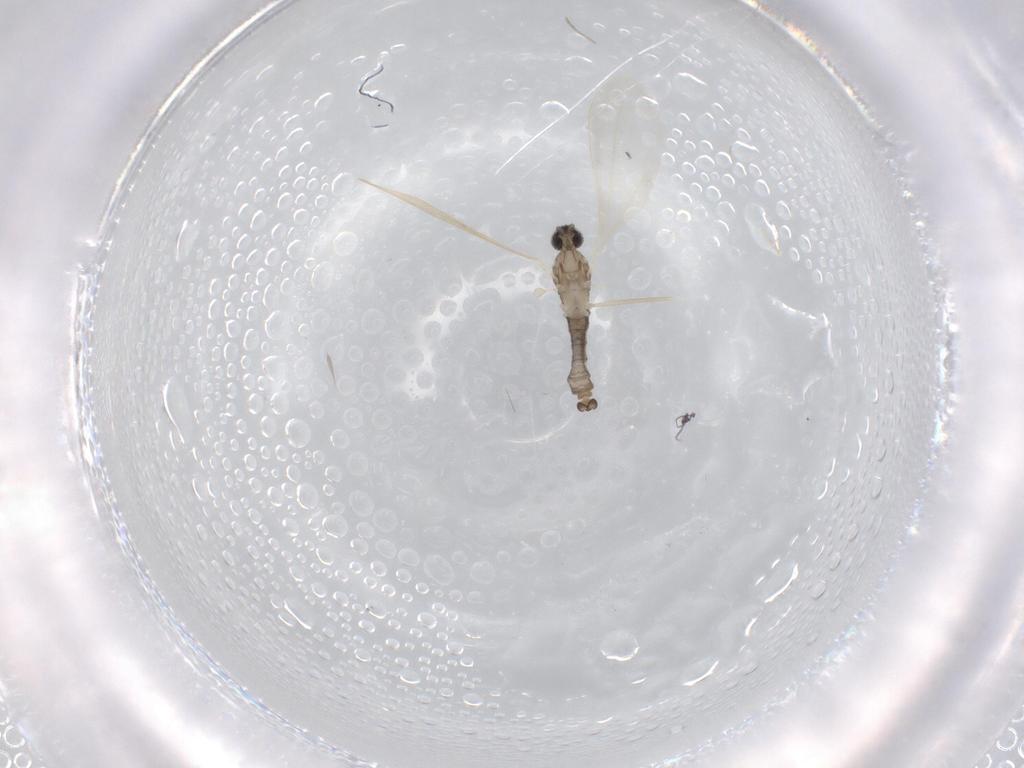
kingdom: Animalia
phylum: Arthropoda
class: Insecta
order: Diptera
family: Cecidomyiidae
